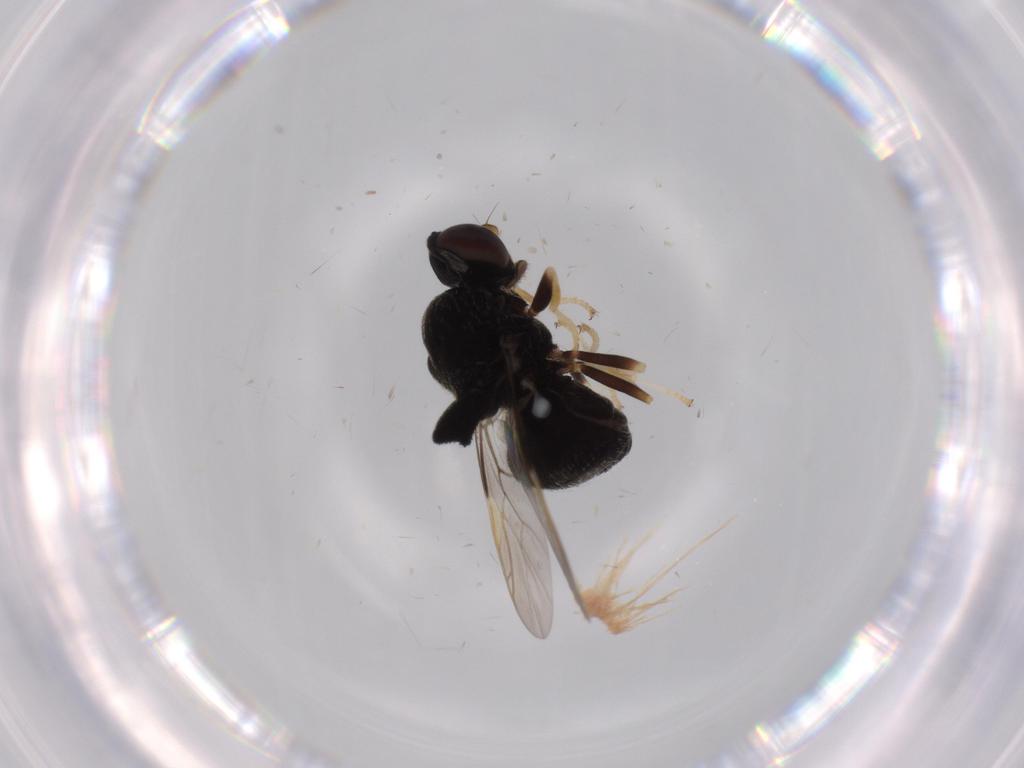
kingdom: Animalia
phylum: Arthropoda
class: Insecta
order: Diptera
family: Stratiomyidae
